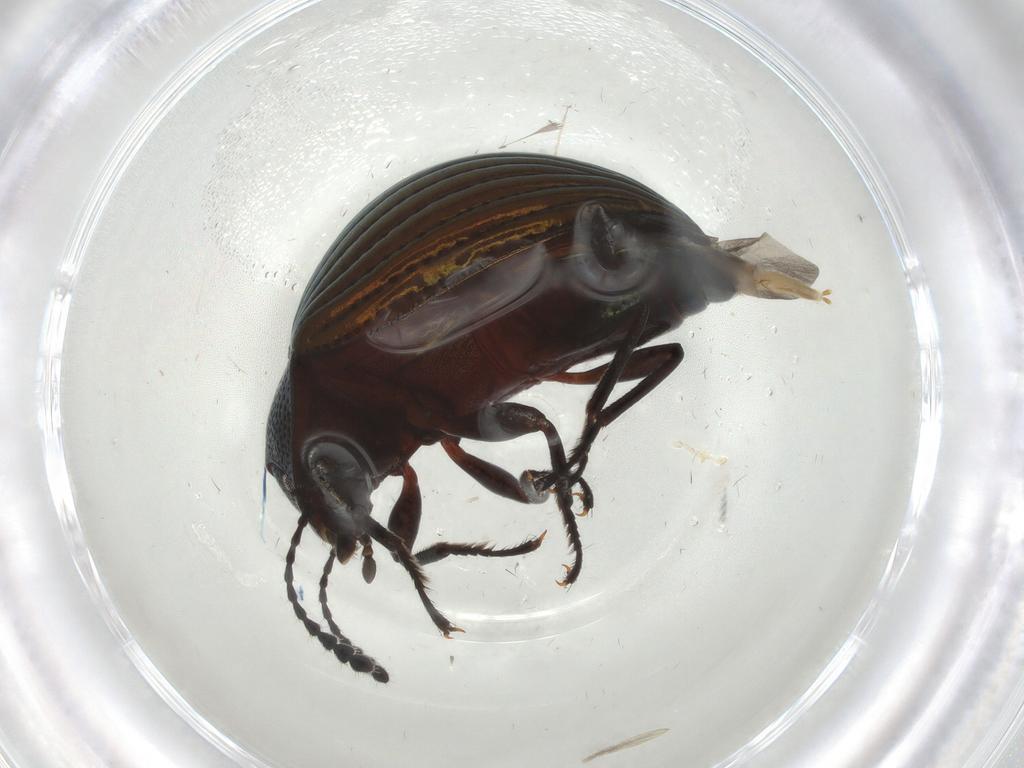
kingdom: Animalia
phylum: Arthropoda
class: Insecta
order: Coleoptera
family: Tenebrionidae
